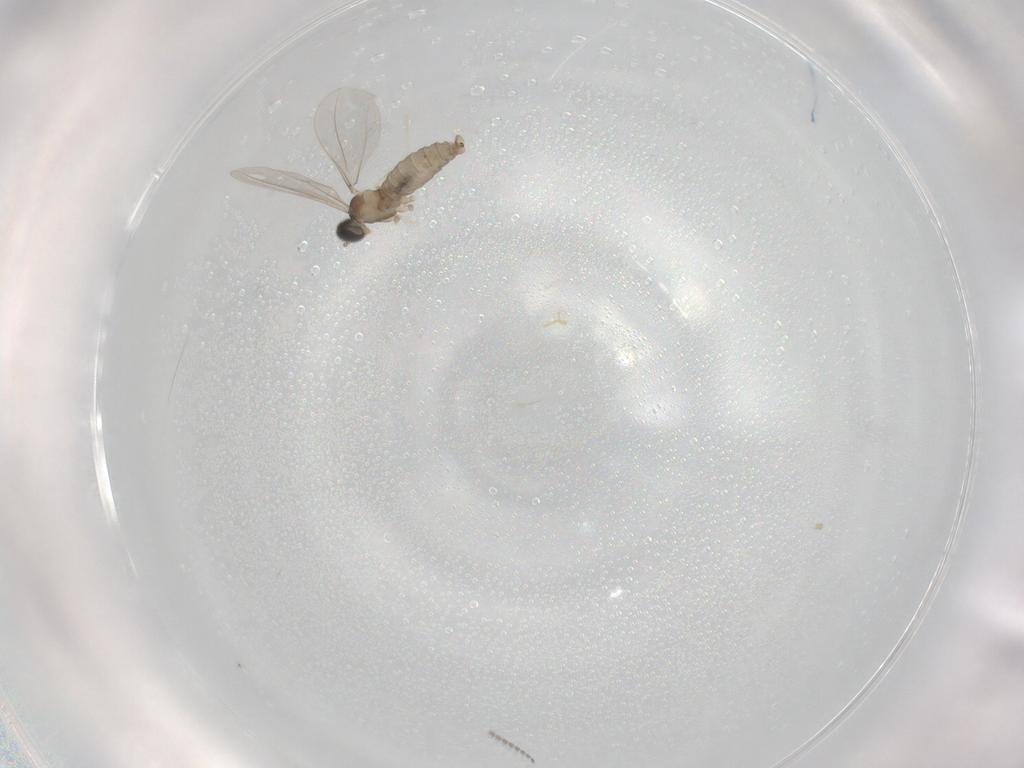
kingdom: Animalia
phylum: Arthropoda
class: Insecta
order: Diptera
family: Cecidomyiidae
